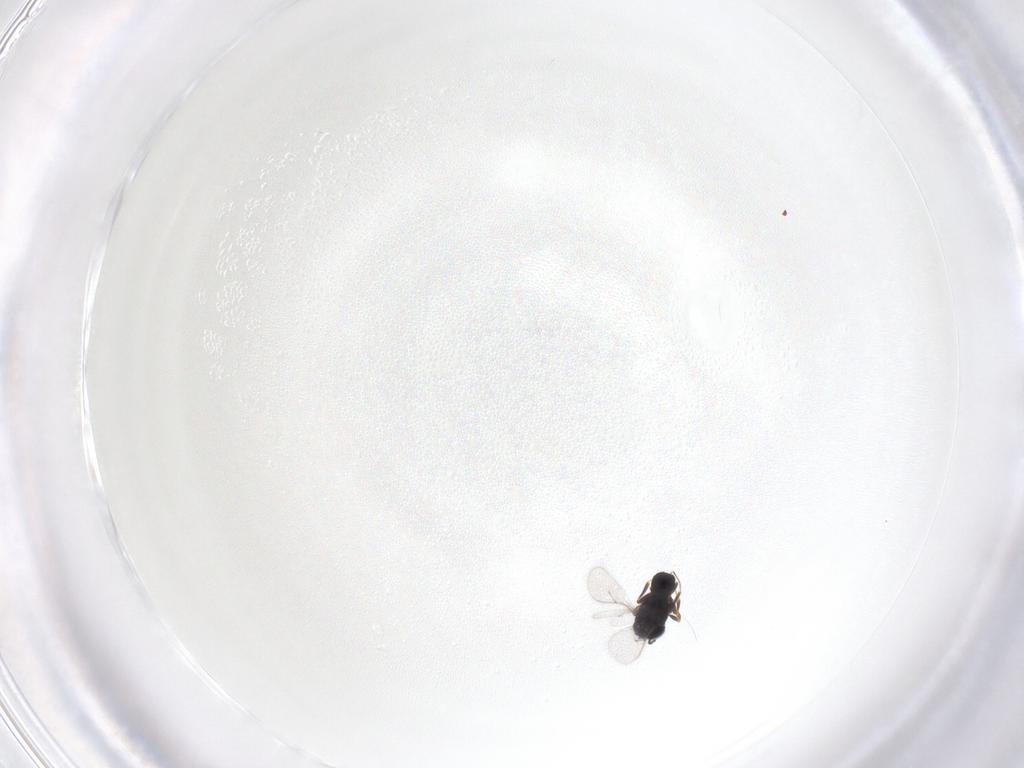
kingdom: Animalia
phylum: Arthropoda
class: Insecta
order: Hymenoptera
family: Scelionidae
